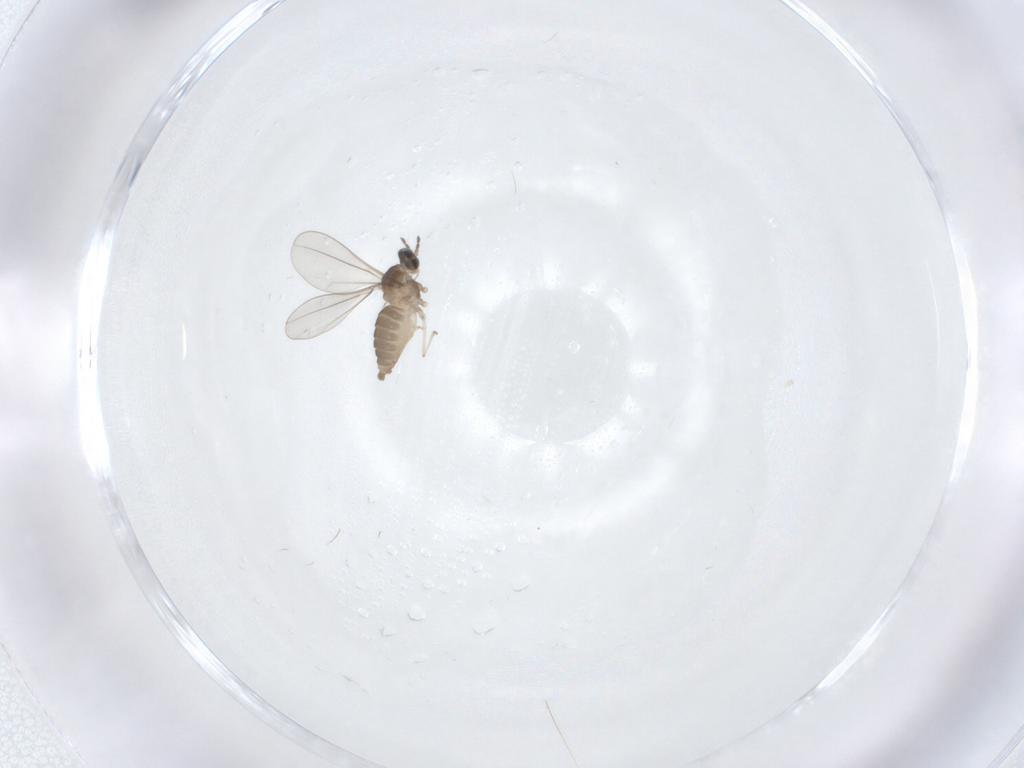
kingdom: Animalia
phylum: Arthropoda
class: Insecta
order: Diptera
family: Cecidomyiidae
